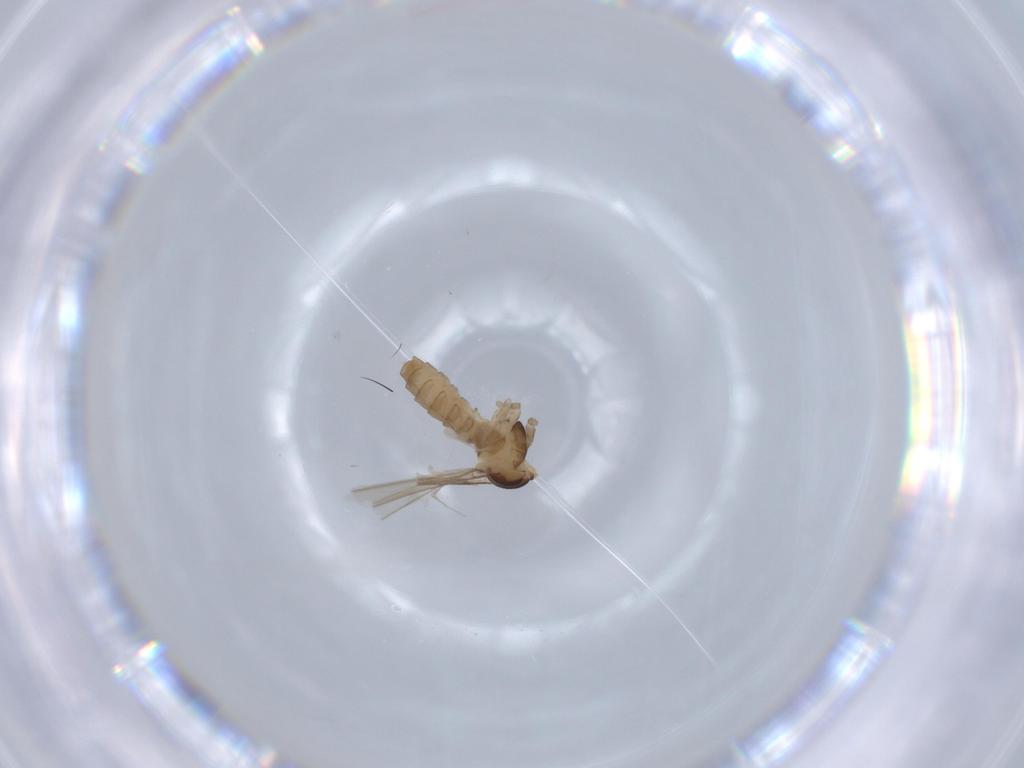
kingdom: Animalia
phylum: Arthropoda
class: Insecta
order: Diptera
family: Cecidomyiidae
